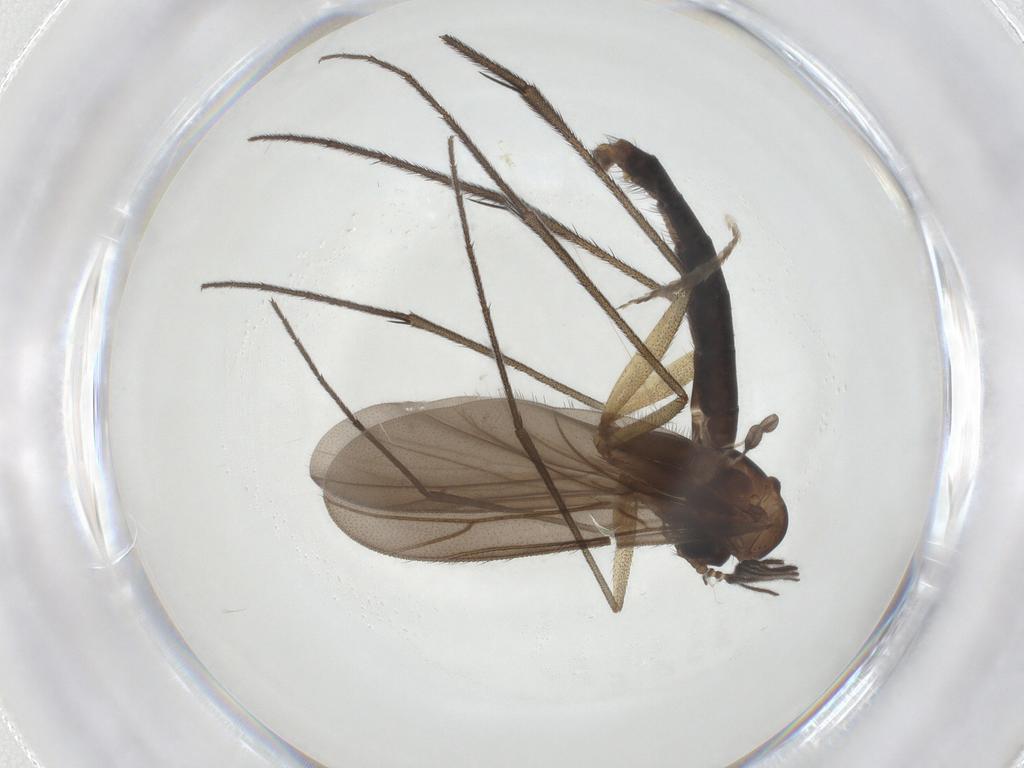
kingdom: Animalia
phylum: Arthropoda
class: Insecta
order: Diptera
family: Ditomyiidae
